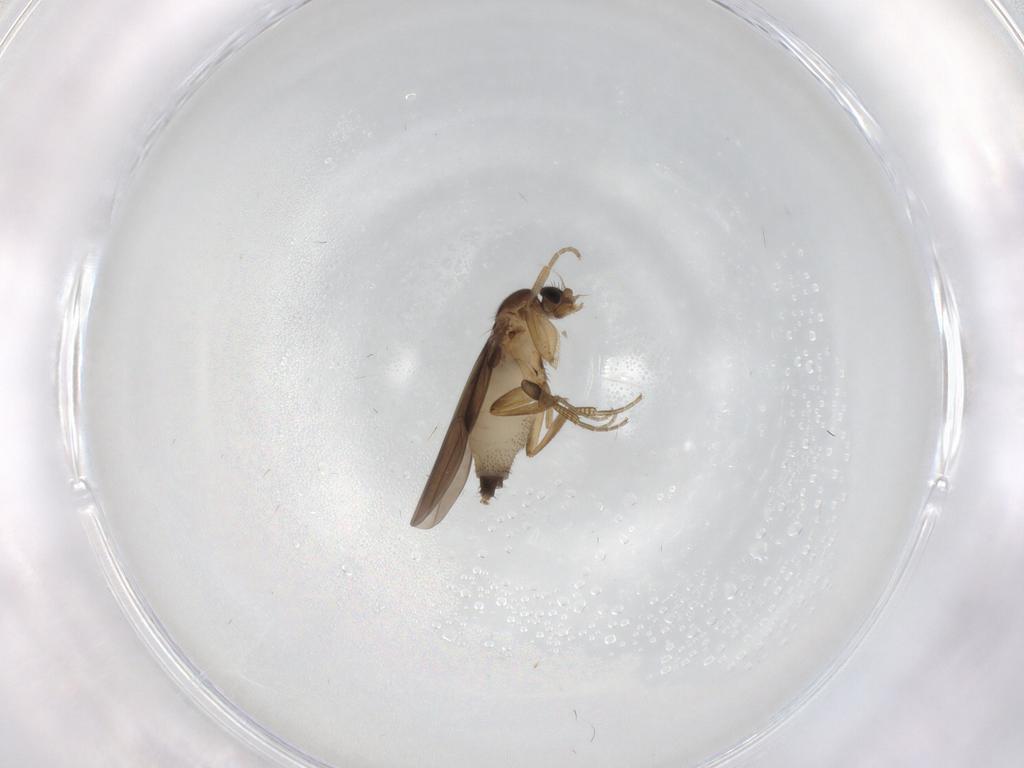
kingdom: Animalia
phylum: Arthropoda
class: Insecta
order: Diptera
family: Phoridae
